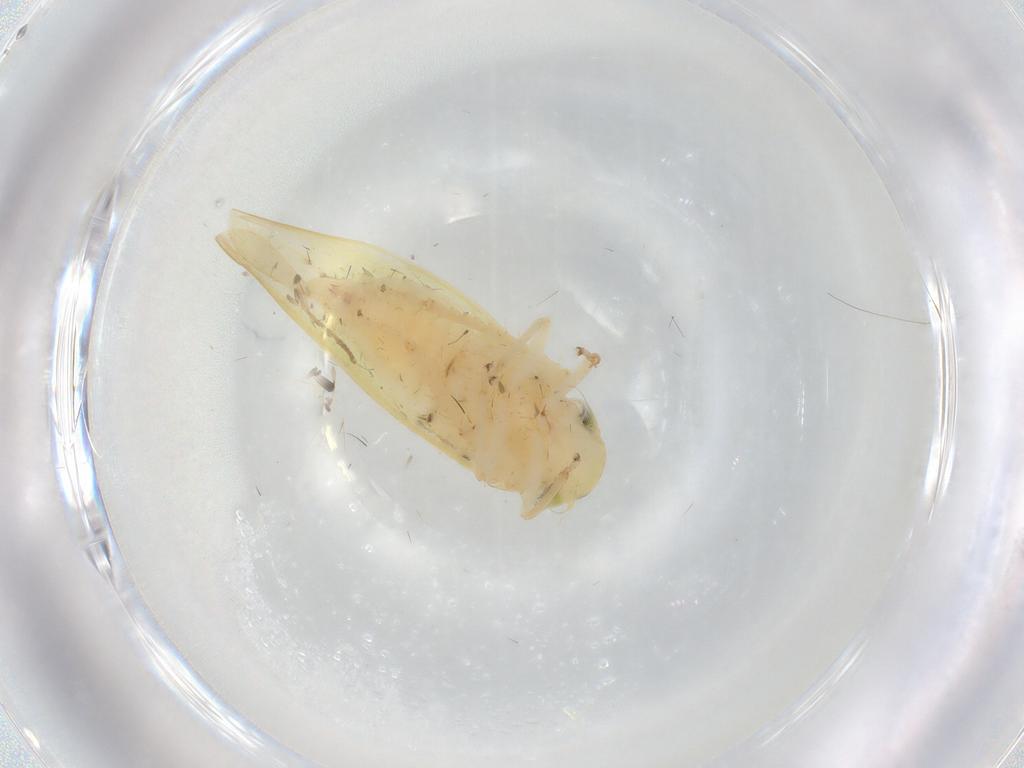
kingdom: Animalia
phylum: Arthropoda
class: Insecta
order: Hemiptera
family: Cicadellidae
